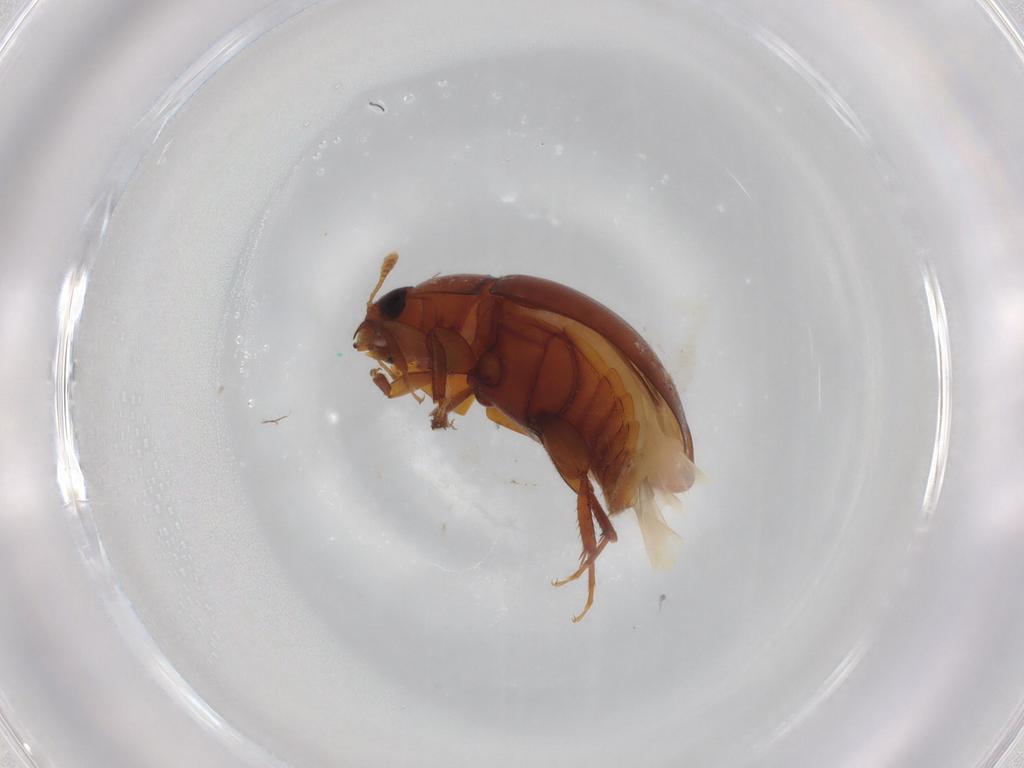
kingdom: Animalia
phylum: Arthropoda
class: Insecta
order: Coleoptera
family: Phalacridae
